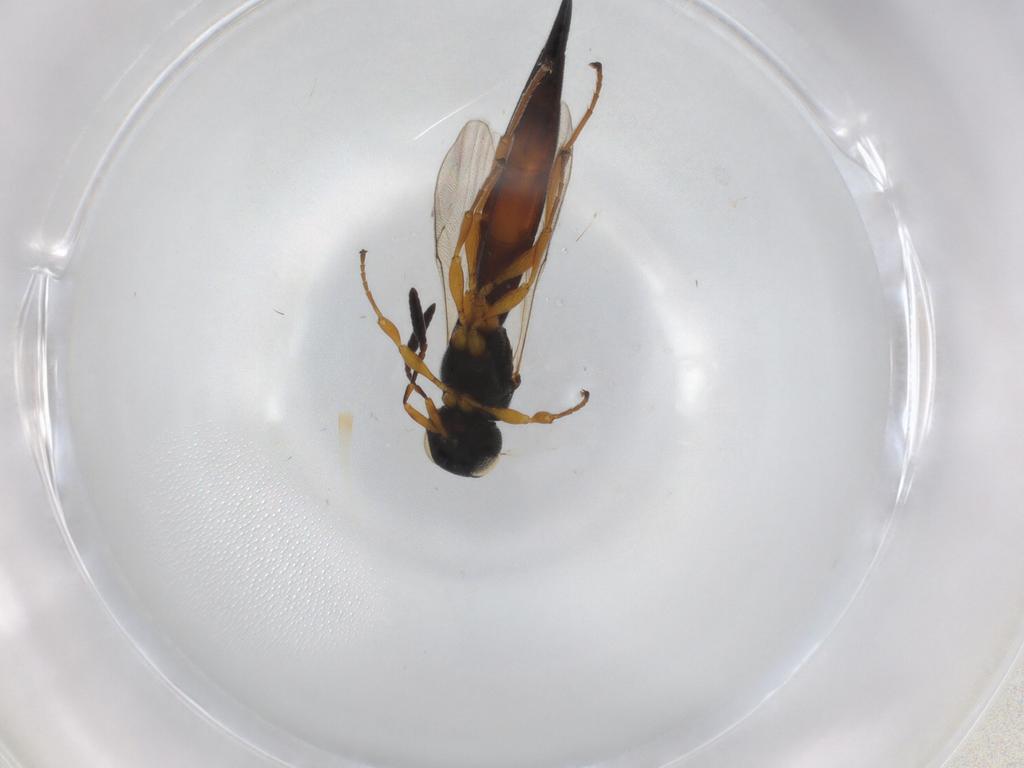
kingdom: Animalia
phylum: Arthropoda
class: Insecta
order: Hymenoptera
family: Scelionidae
